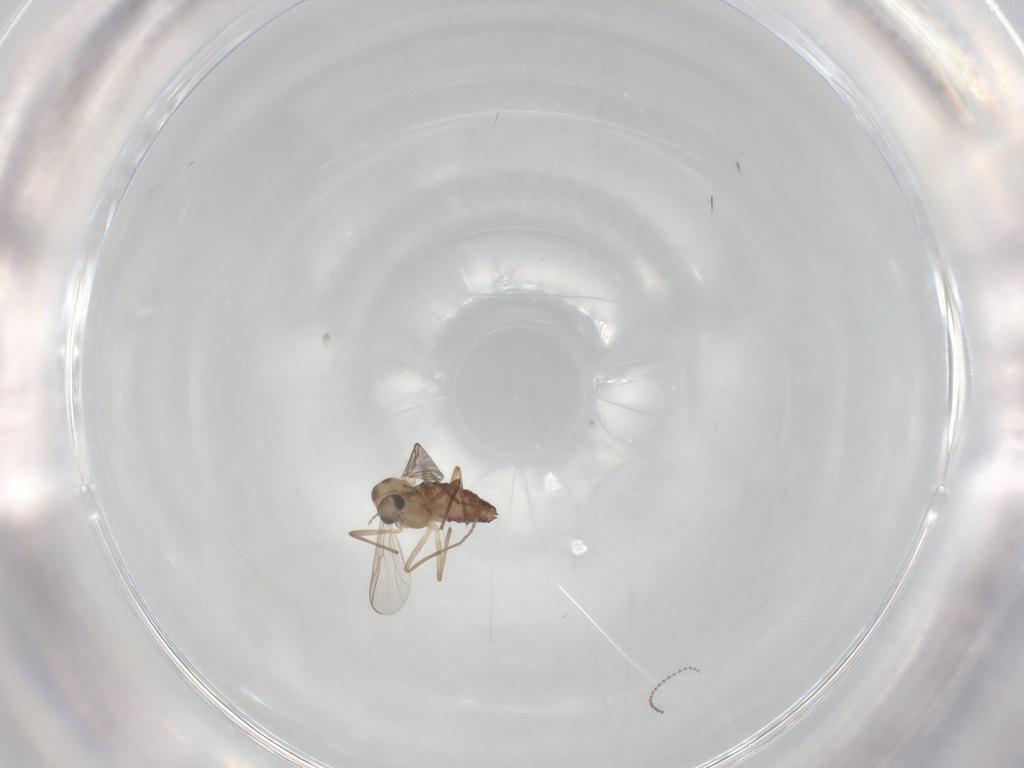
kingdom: Animalia
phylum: Arthropoda
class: Insecta
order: Diptera
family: Chironomidae
